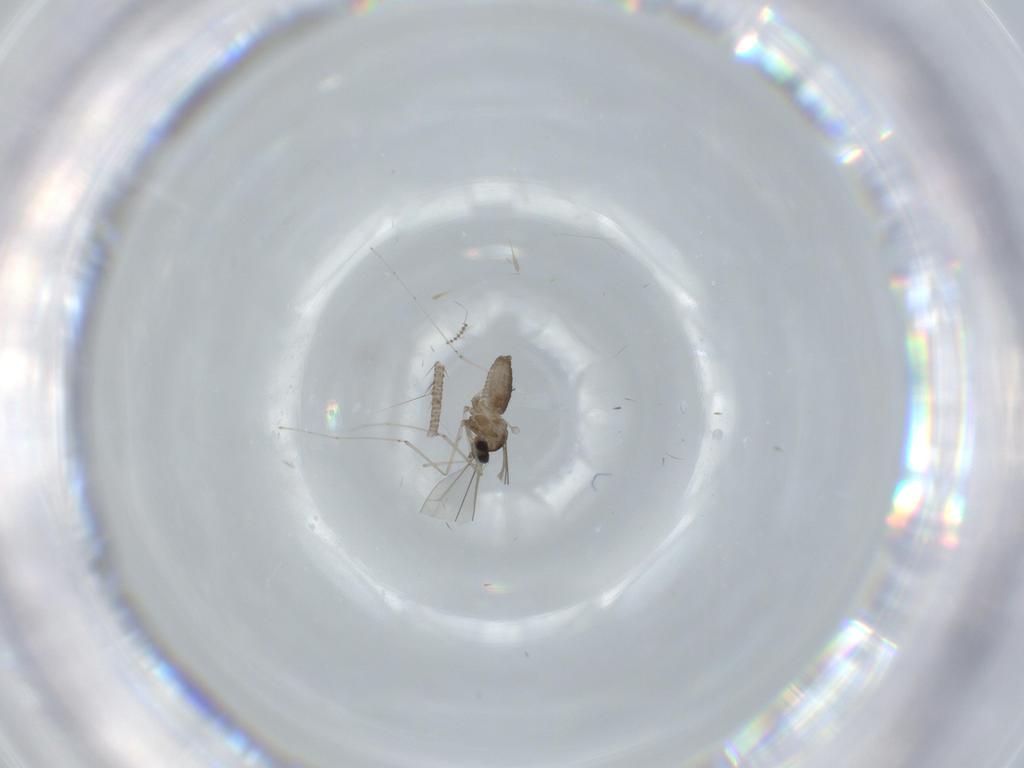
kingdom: Animalia
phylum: Arthropoda
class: Insecta
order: Diptera
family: Cecidomyiidae
